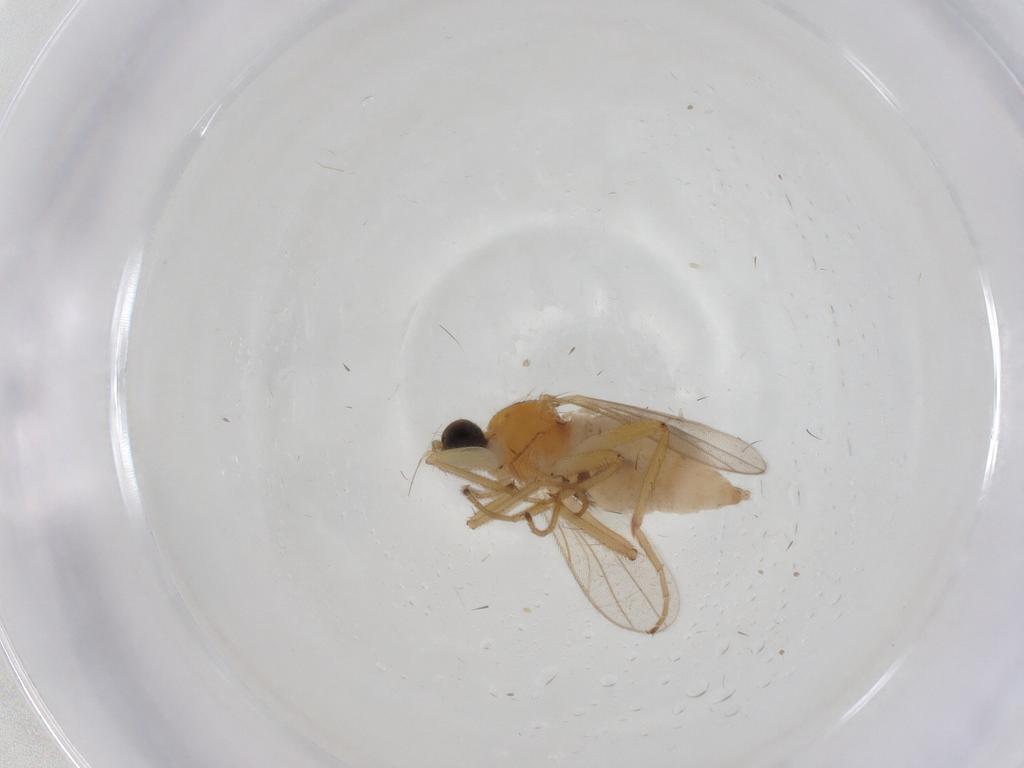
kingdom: Animalia
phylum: Arthropoda
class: Insecta
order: Diptera
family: Hybotidae
